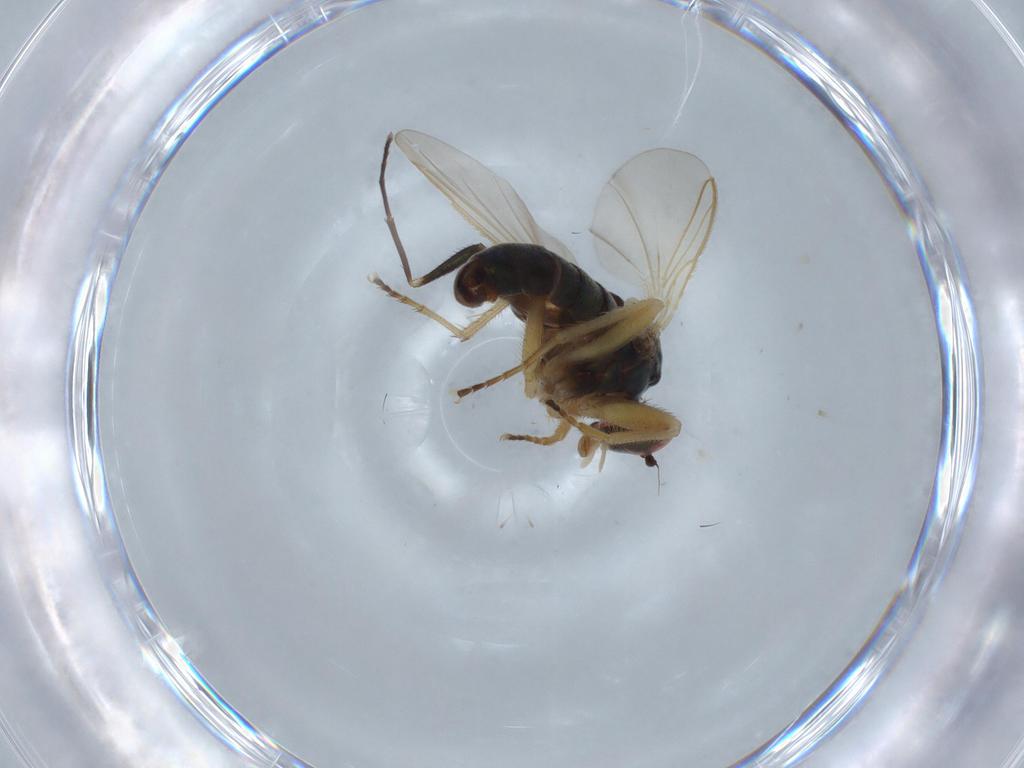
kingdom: Animalia
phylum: Arthropoda
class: Insecta
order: Diptera
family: Dolichopodidae
